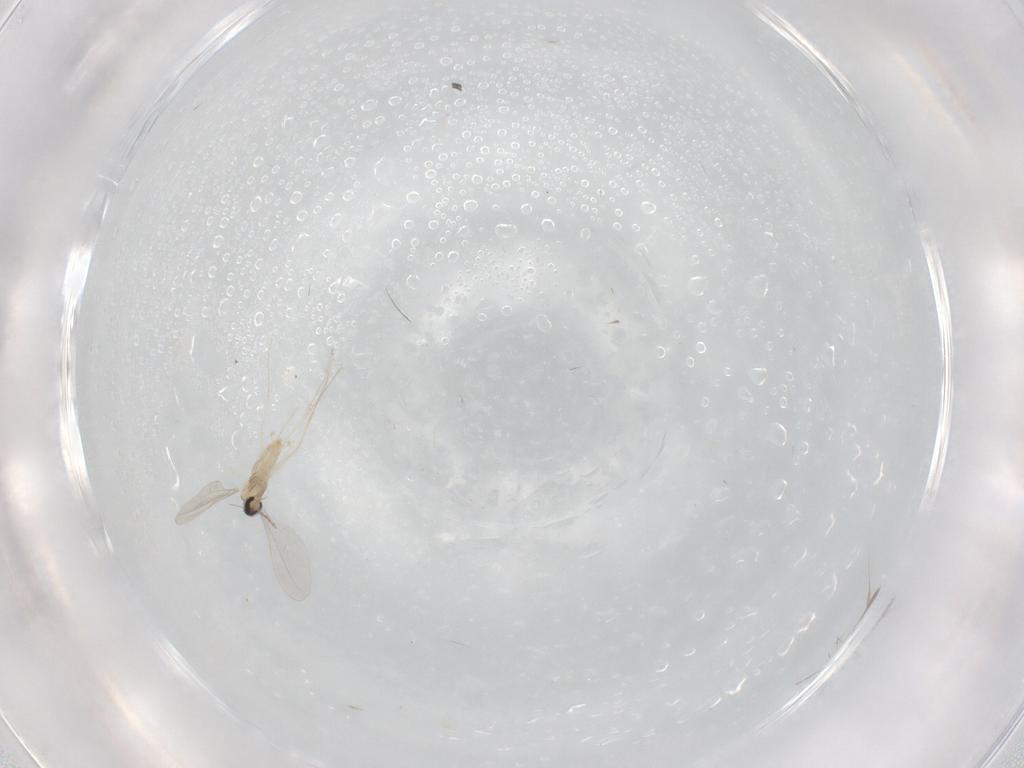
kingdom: Animalia
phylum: Arthropoda
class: Insecta
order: Diptera
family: Cecidomyiidae
